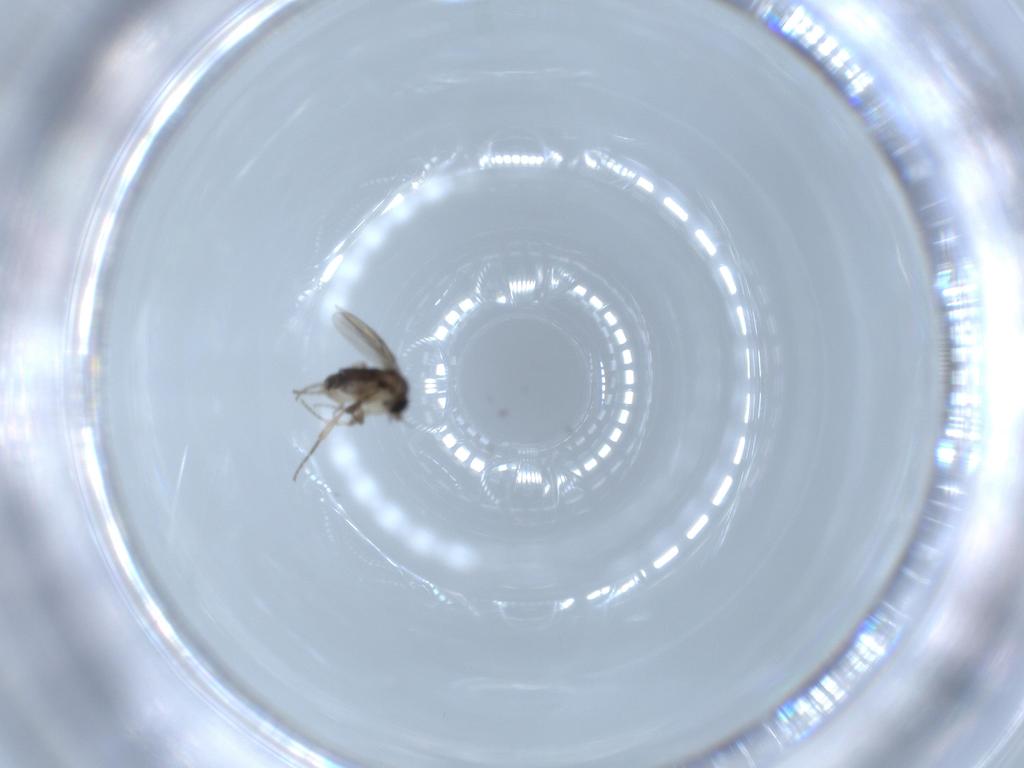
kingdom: Animalia
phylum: Arthropoda
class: Insecta
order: Diptera
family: Phoridae
